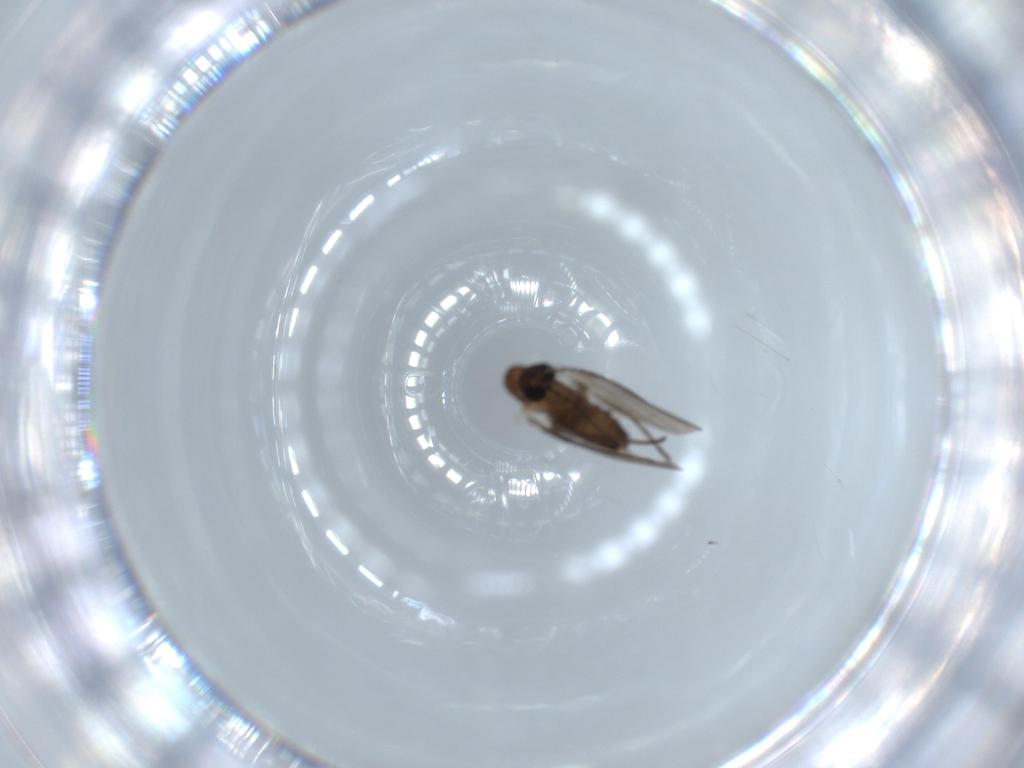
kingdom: Animalia
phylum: Arthropoda
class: Insecta
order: Diptera
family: Psychodidae
